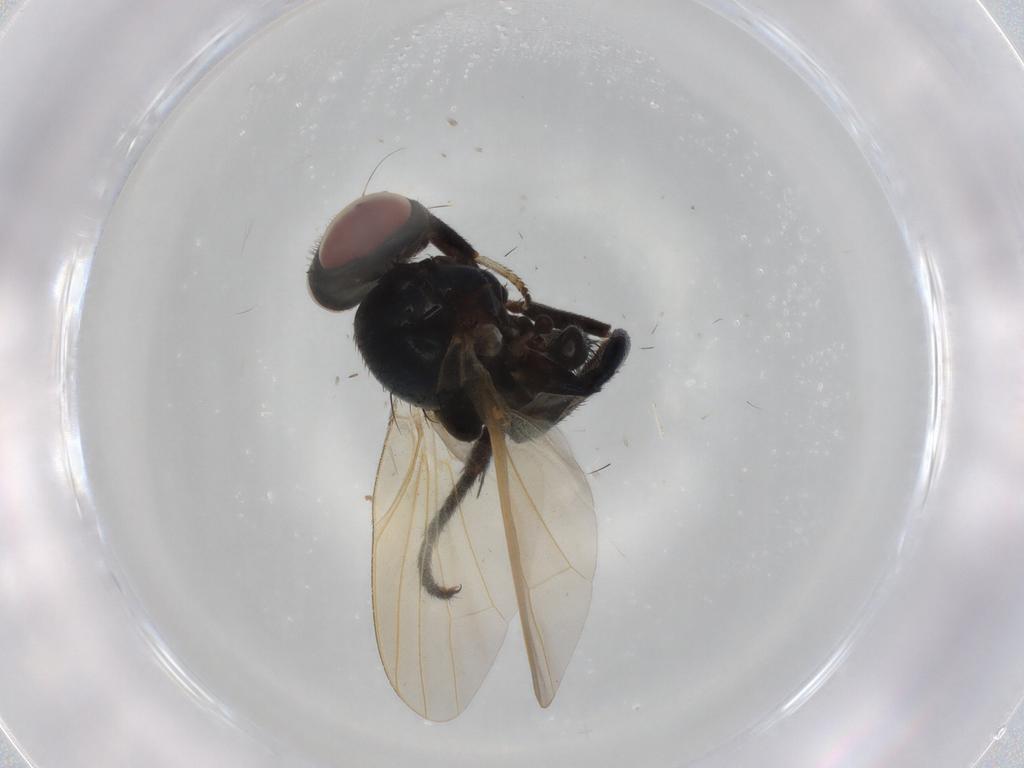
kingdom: Animalia
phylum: Arthropoda
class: Insecta
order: Diptera
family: Lonchaeidae
